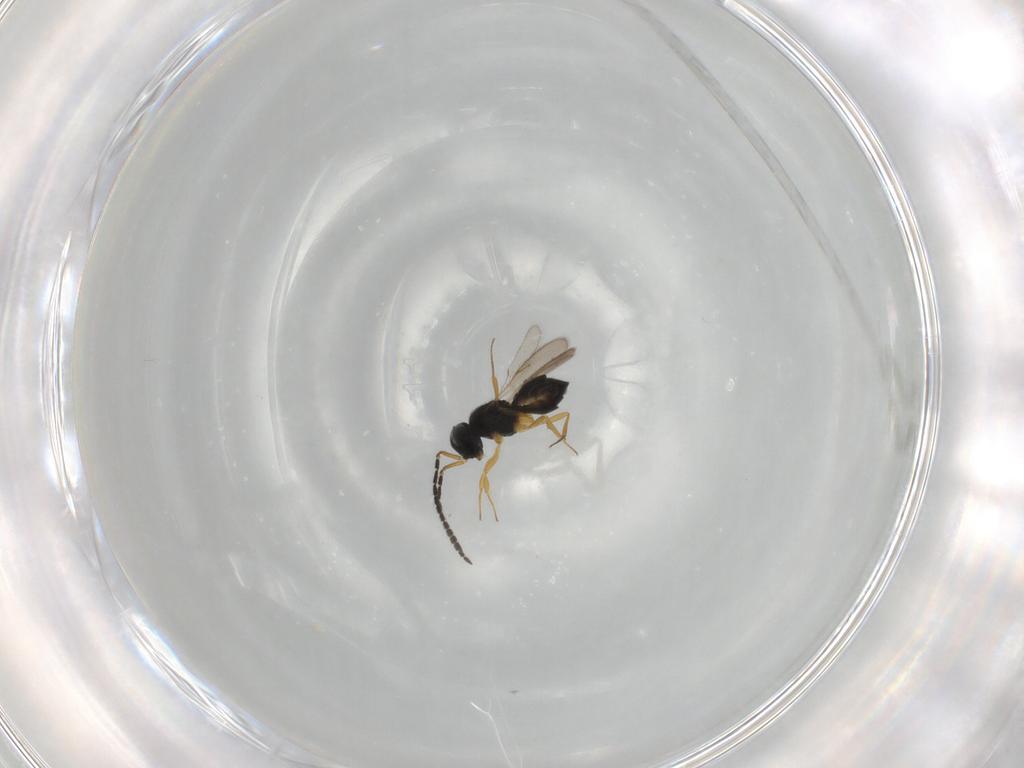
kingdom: Animalia
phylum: Arthropoda
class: Insecta
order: Hymenoptera
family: Scelionidae
